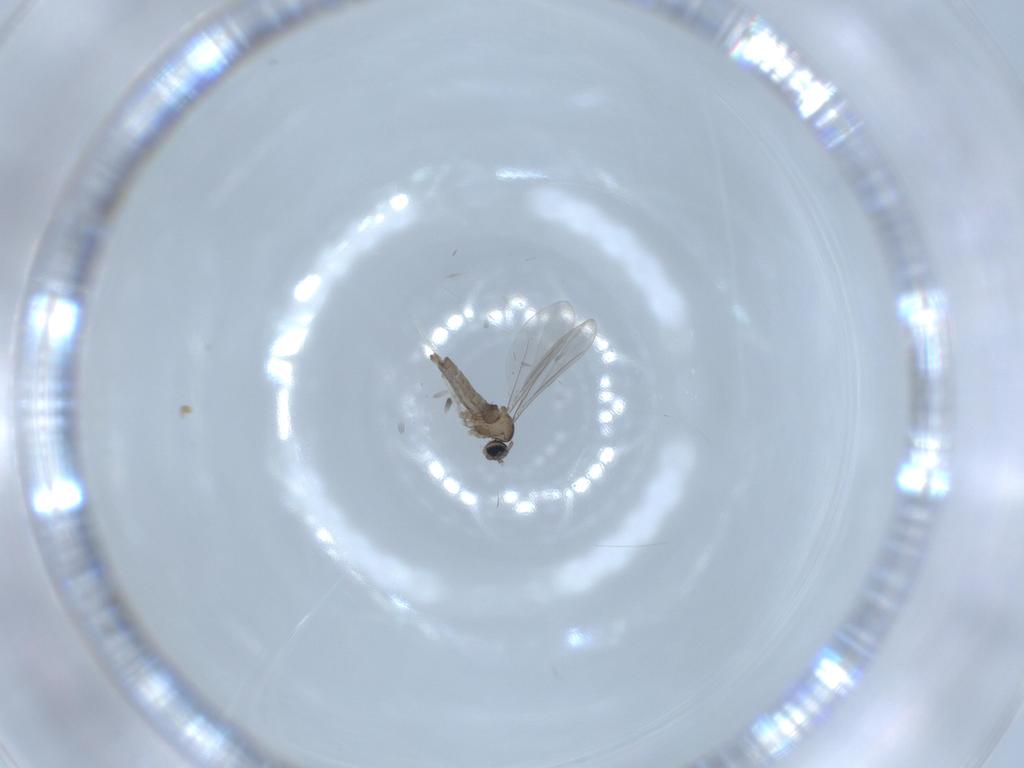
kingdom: Animalia
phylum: Arthropoda
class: Insecta
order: Diptera
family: Cecidomyiidae
